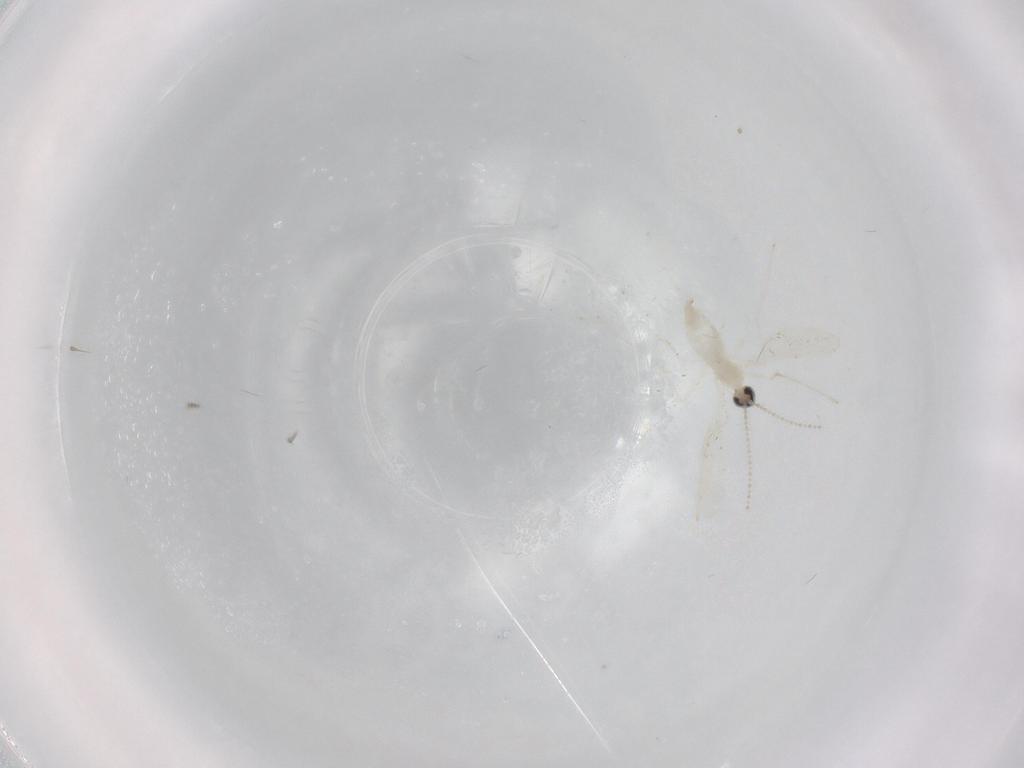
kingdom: Animalia
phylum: Arthropoda
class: Insecta
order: Diptera
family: Cecidomyiidae
